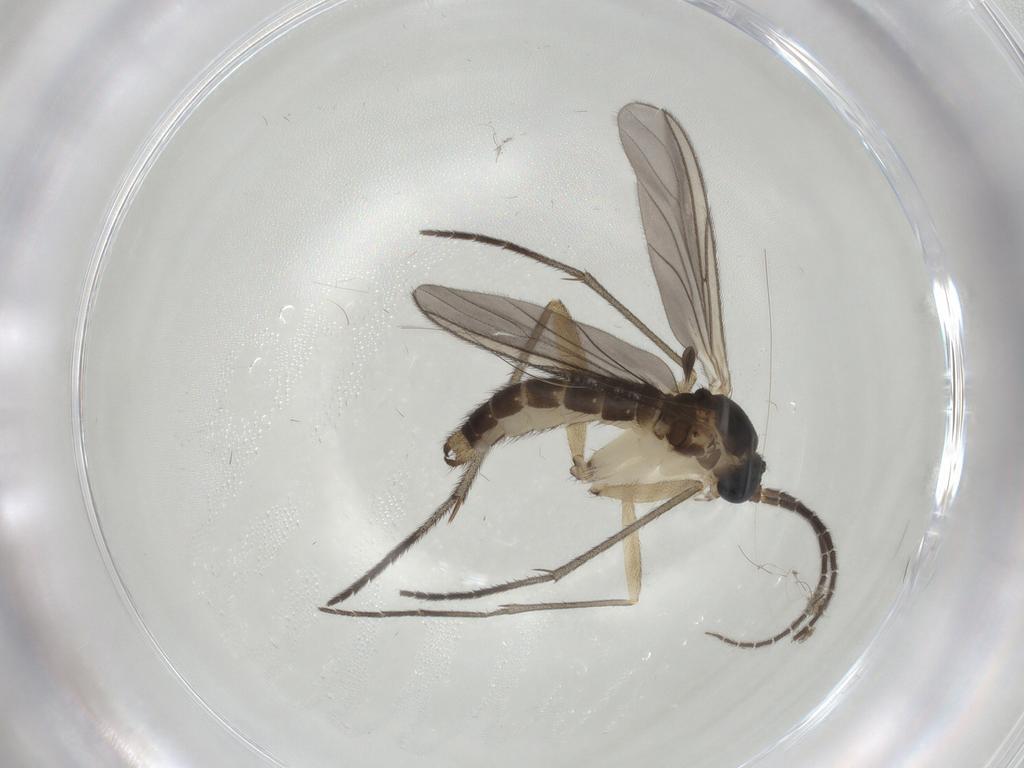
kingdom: Animalia
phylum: Arthropoda
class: Insecta
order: Diptera
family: Sciaridae
